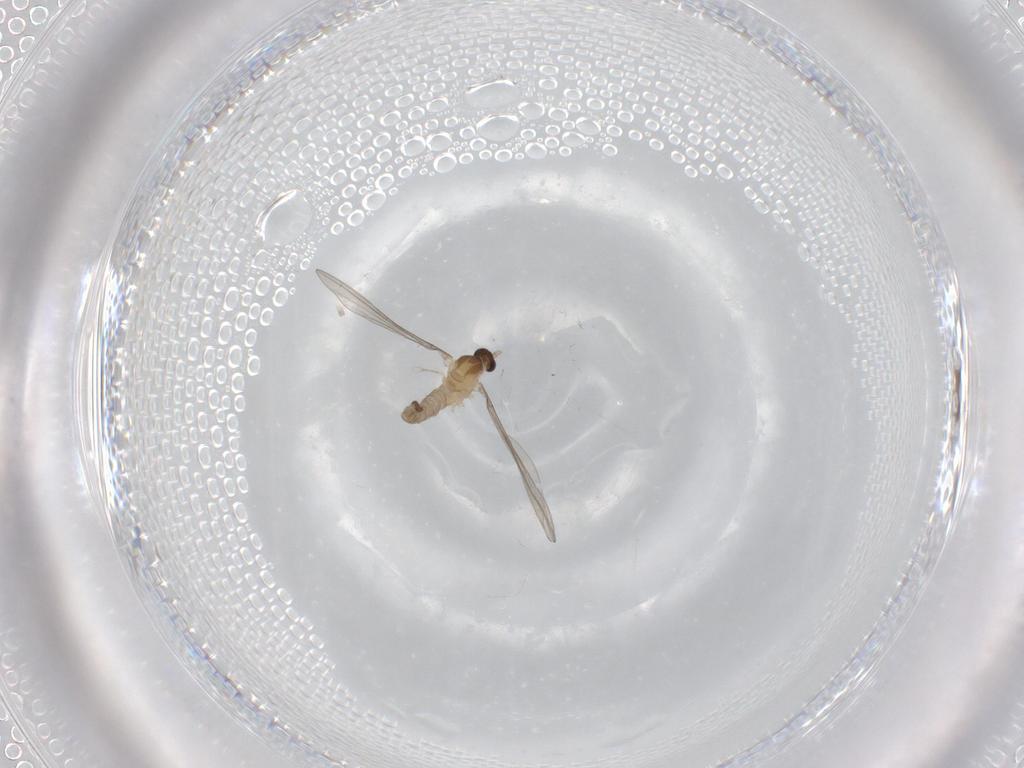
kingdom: Animalia
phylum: Arthropoda
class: Insecta
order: Diptera
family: Cecidomyiidae
